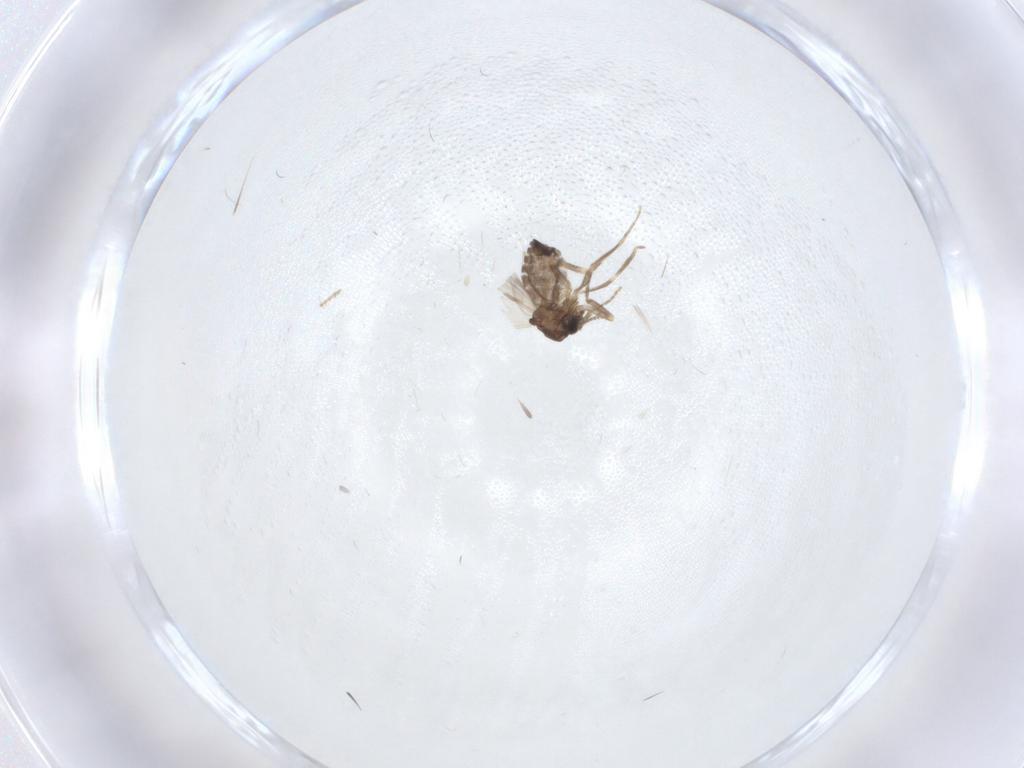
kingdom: Animalia
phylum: Arthropoda
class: Insecta
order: Diptera
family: Ceratopogonidae
